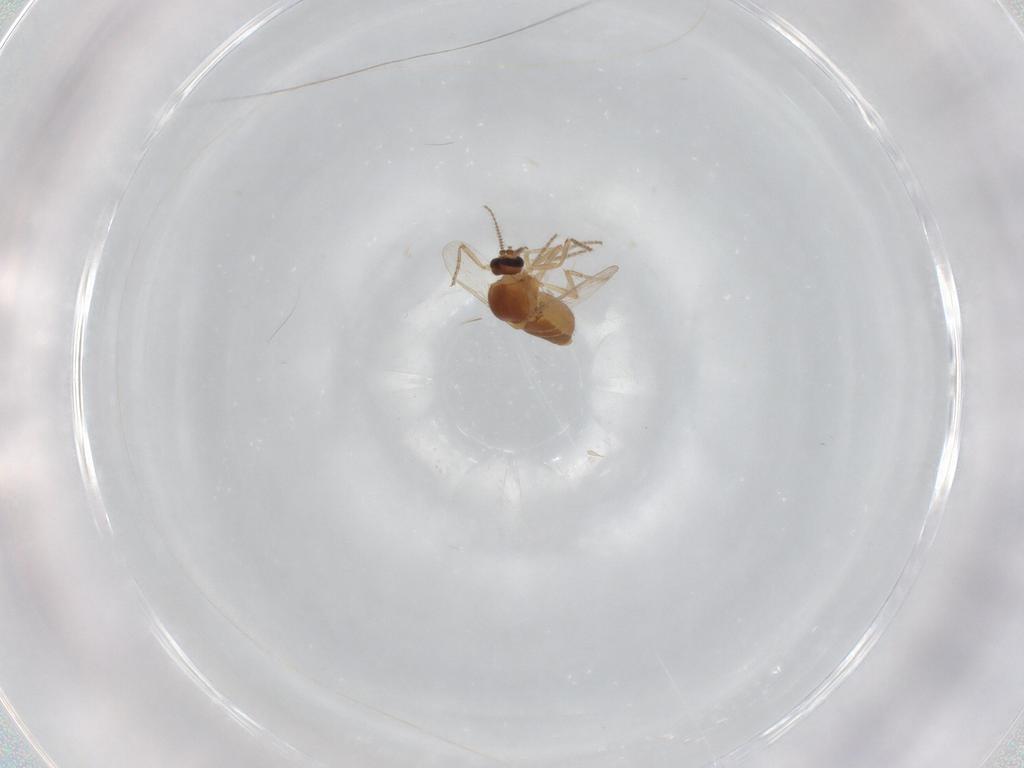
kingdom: Animalia
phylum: Arthropoda
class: Insecta
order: Diptera
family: Ceratopogonidae
